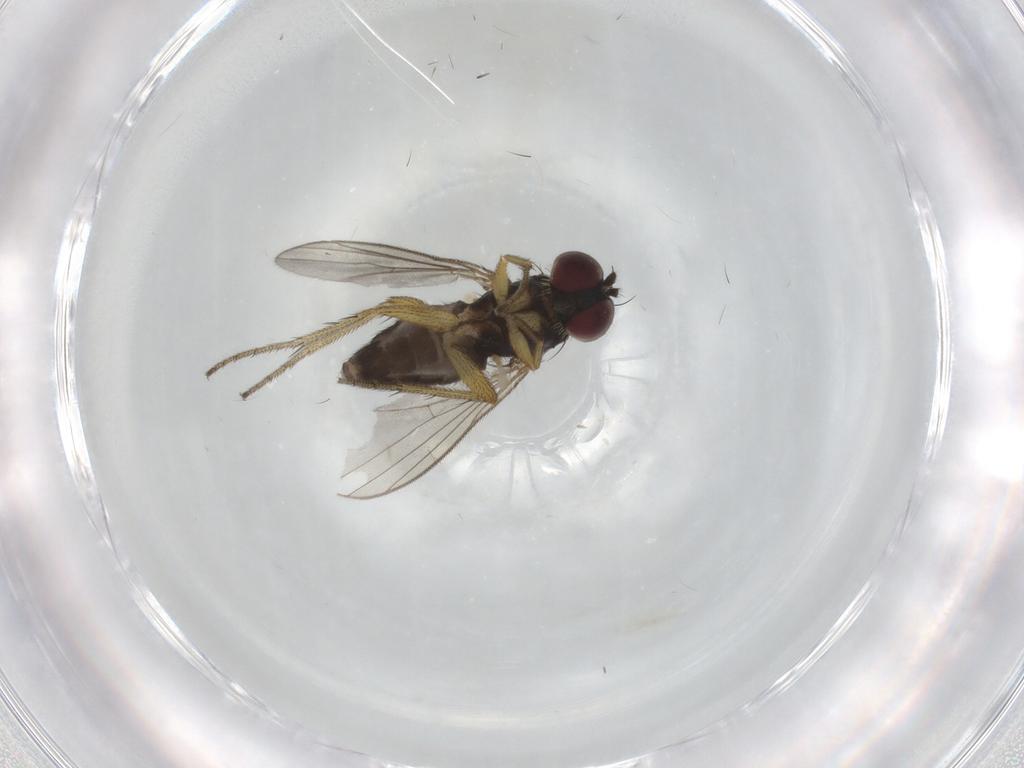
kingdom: Animalia
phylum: Arthropoda
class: Insecta
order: Diptera
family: Dolichopodidae
